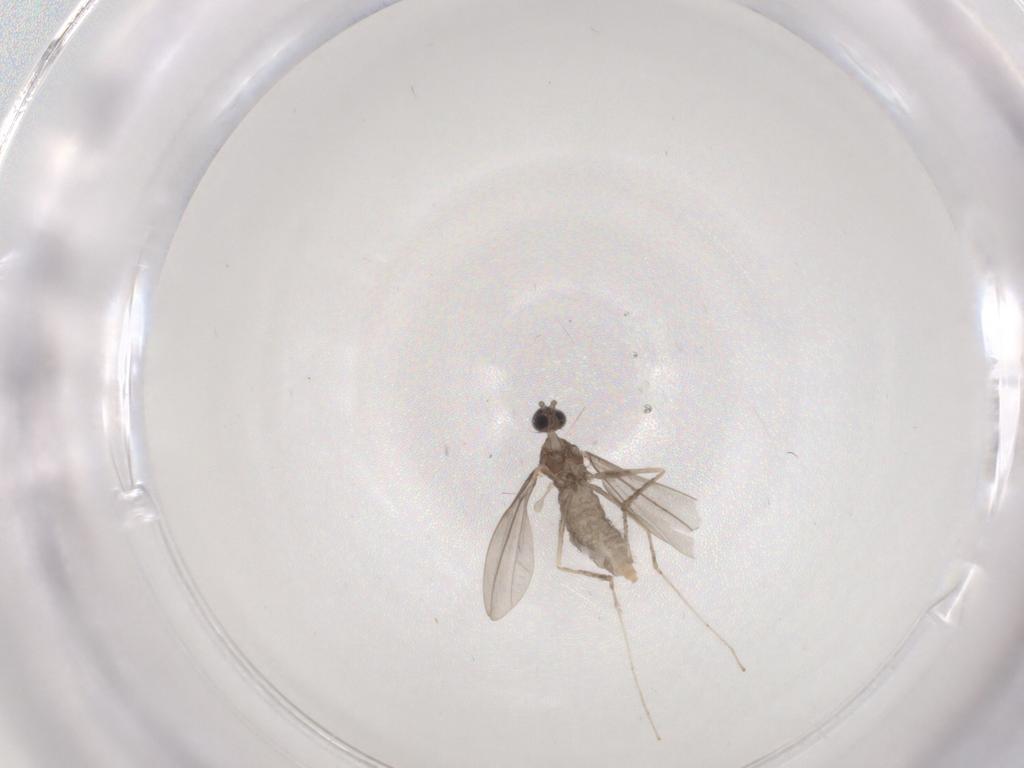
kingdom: Animalia
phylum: Arthropoda
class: Insecta
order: Diptera
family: Cecidomyiidae
